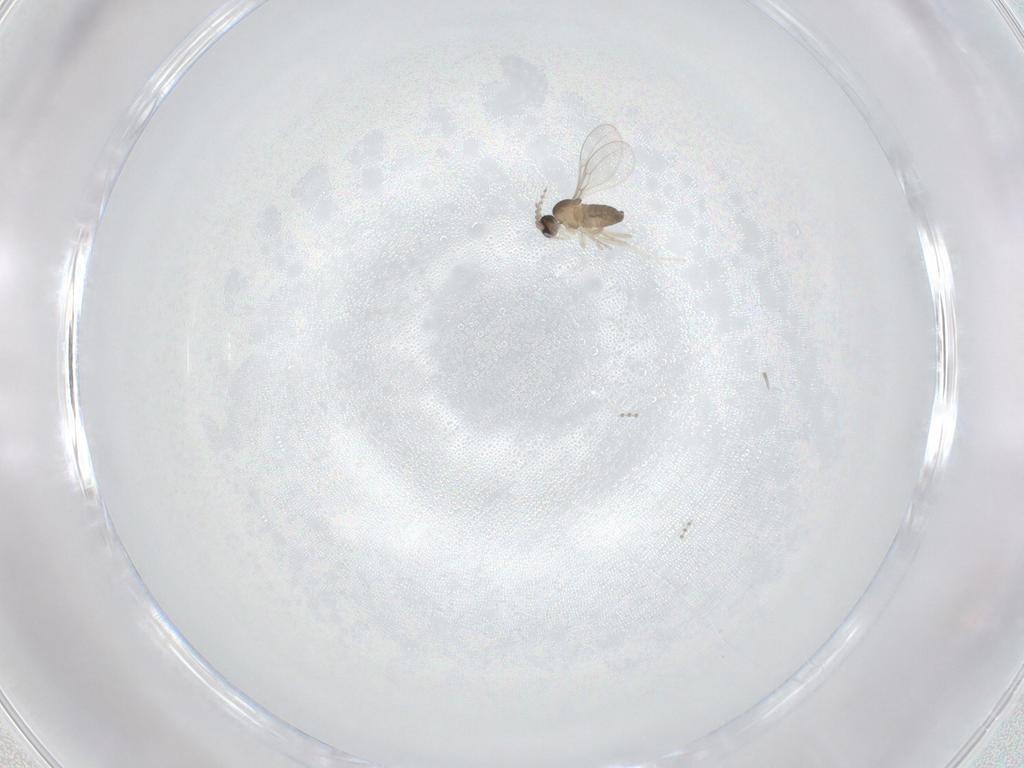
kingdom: Animalia
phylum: Arthropoda
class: Insecta
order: Diptera
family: Cecidomyiidae
